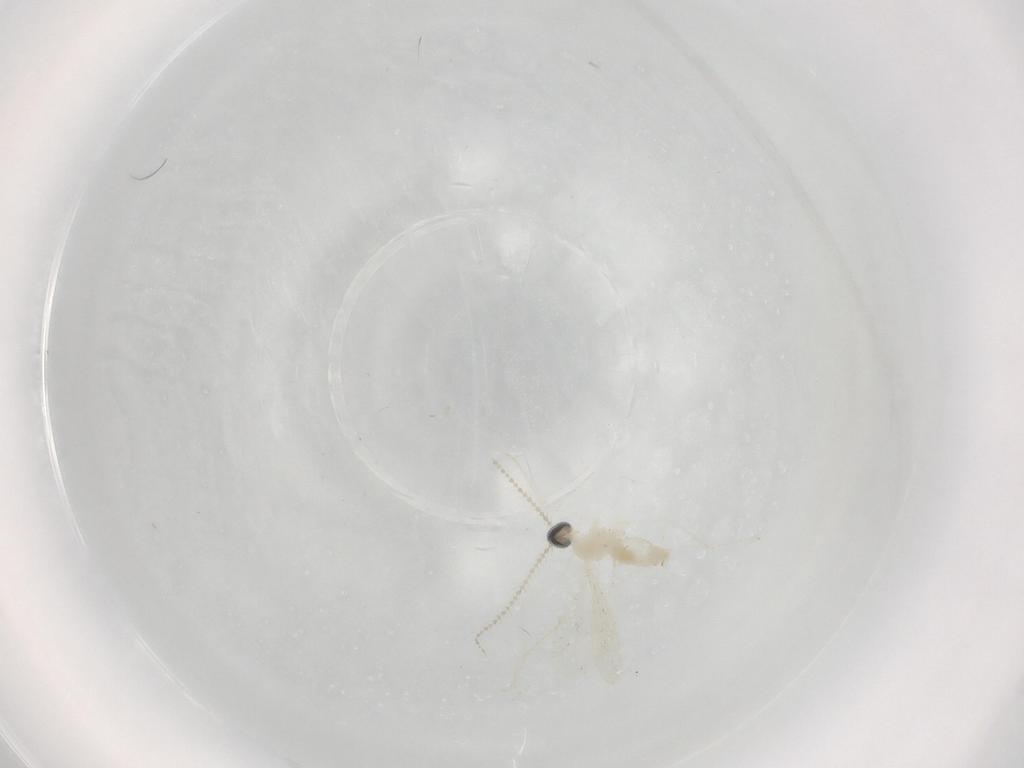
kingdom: Animalia
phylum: Arthropoda
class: Insecta
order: Diptera
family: Cecidomyiidae
